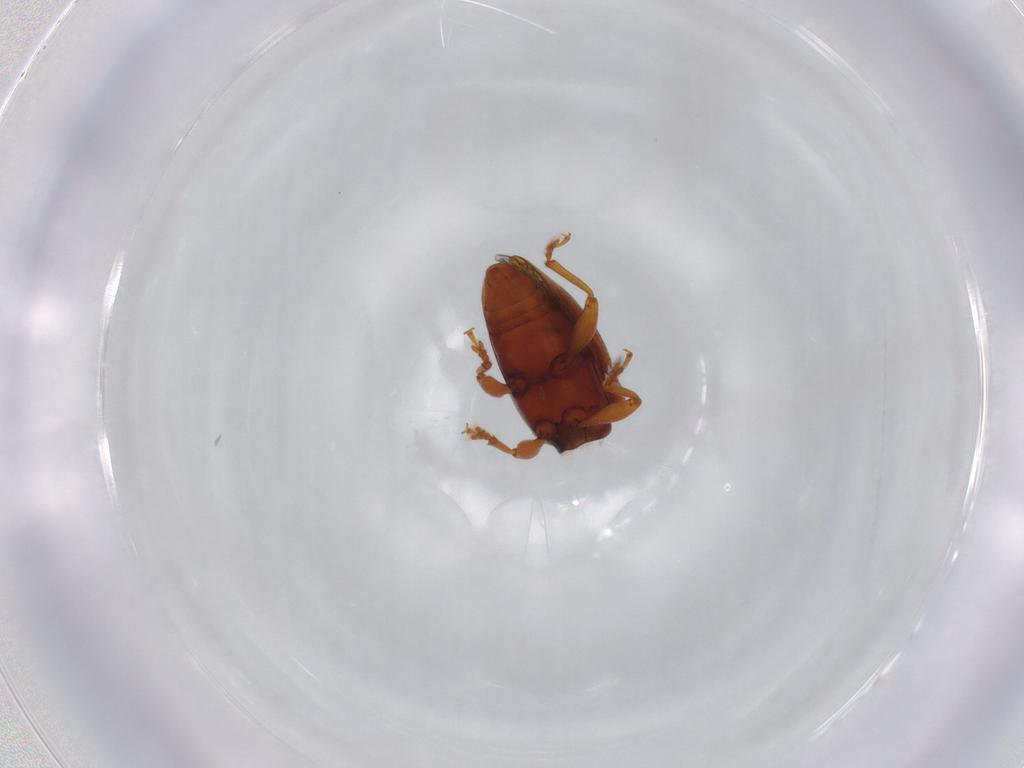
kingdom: Animalia
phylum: Arthropoda
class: Insecta
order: Coleoptera
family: Curculionidae
